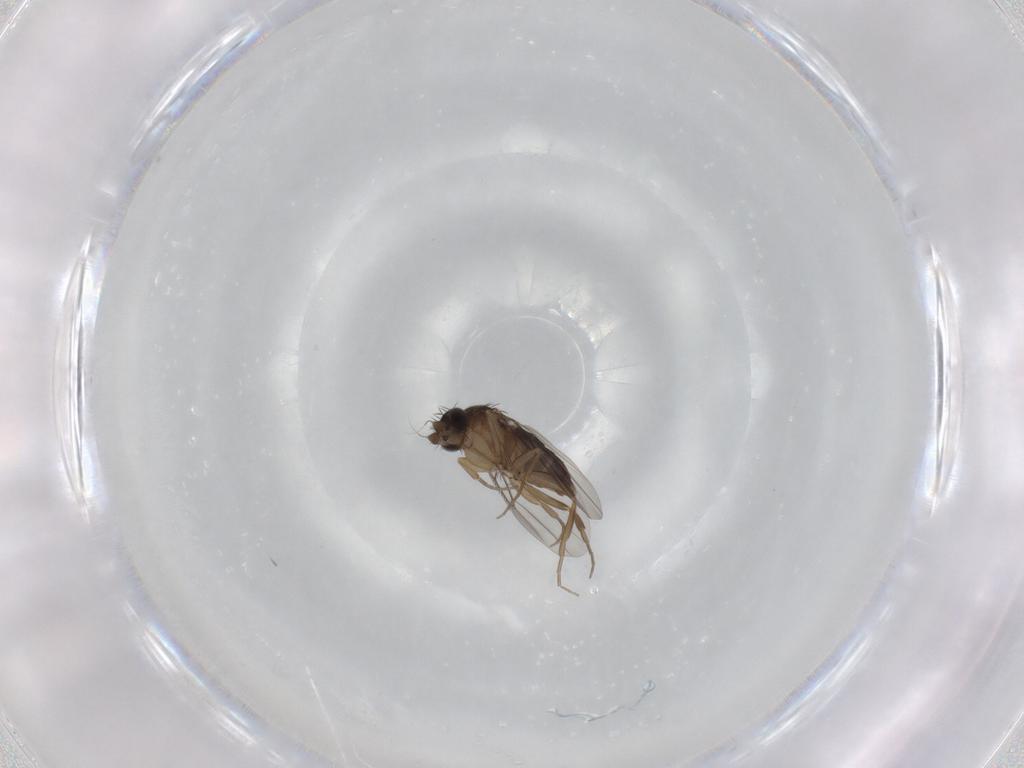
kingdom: Animalia
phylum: Arthropoda
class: Insecta
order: Diptera
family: Phoridae
